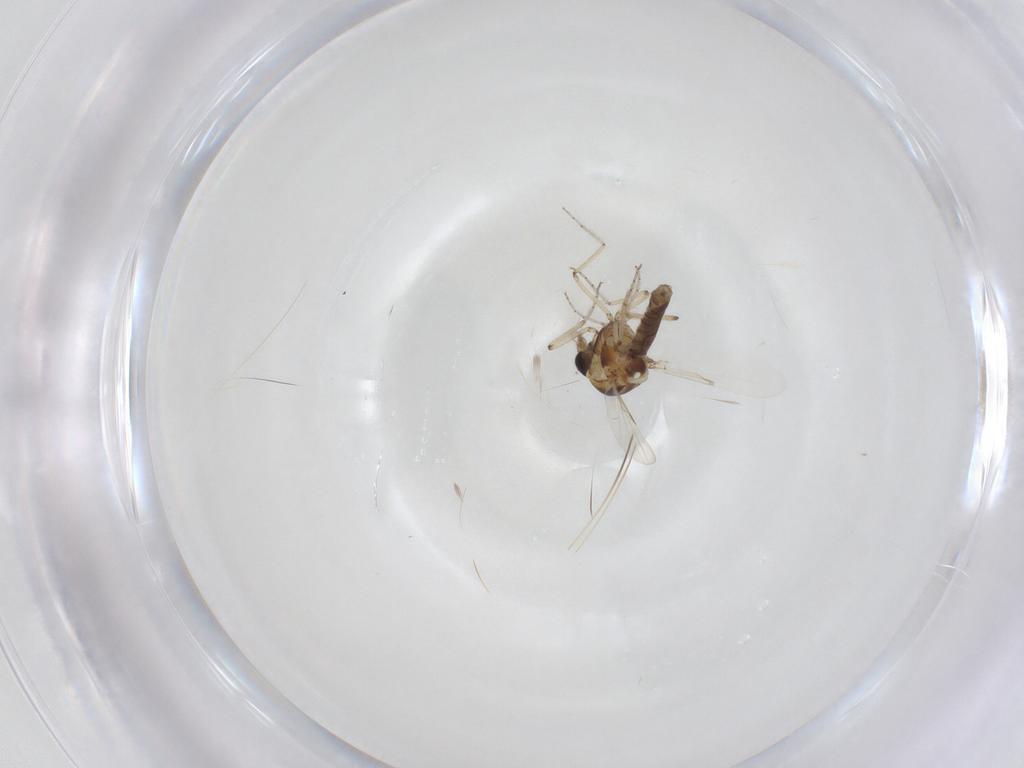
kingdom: Animalia
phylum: Arthropoda
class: Insecta
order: Diptera
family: Ceratopogonidae
